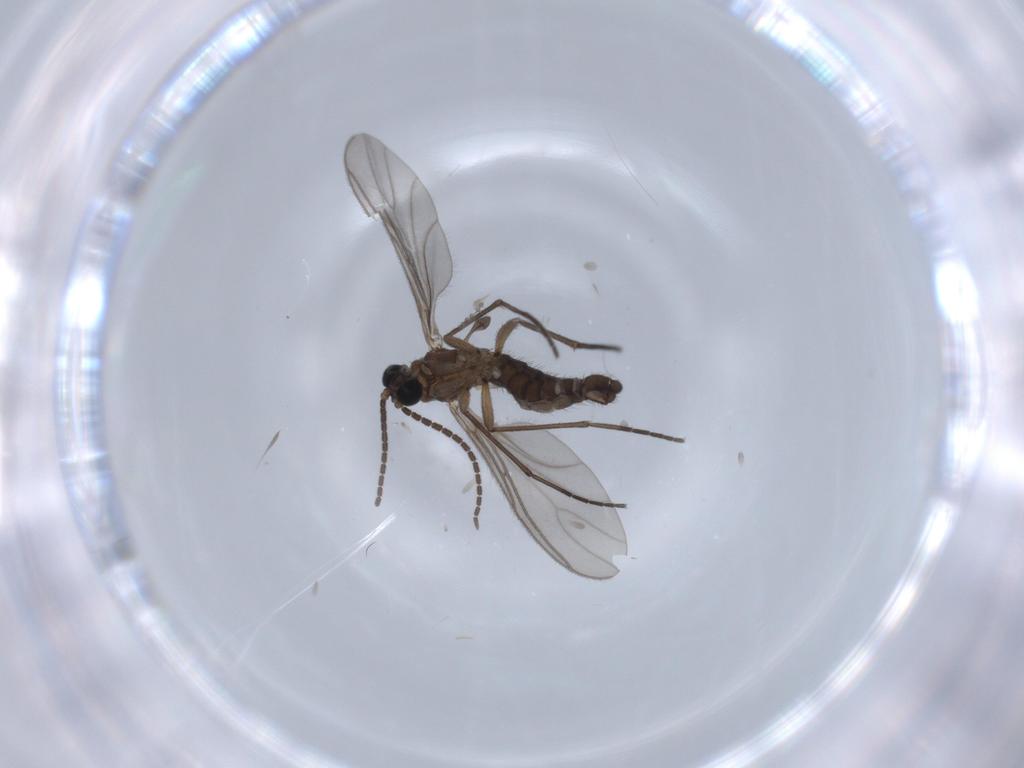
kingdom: Animalia
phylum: Arthropoda
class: Insecta
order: Diptera
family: Sciaridae
